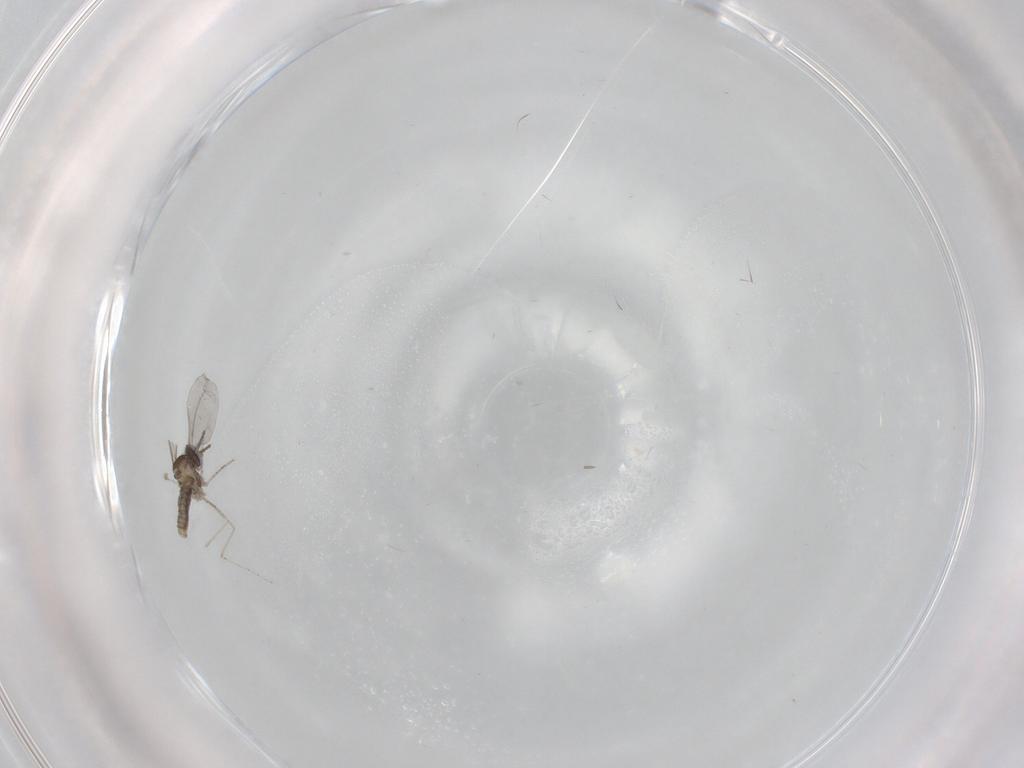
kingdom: Animalia
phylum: Arthropoda
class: Insecta
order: Diptera
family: Cecidomyiidae
